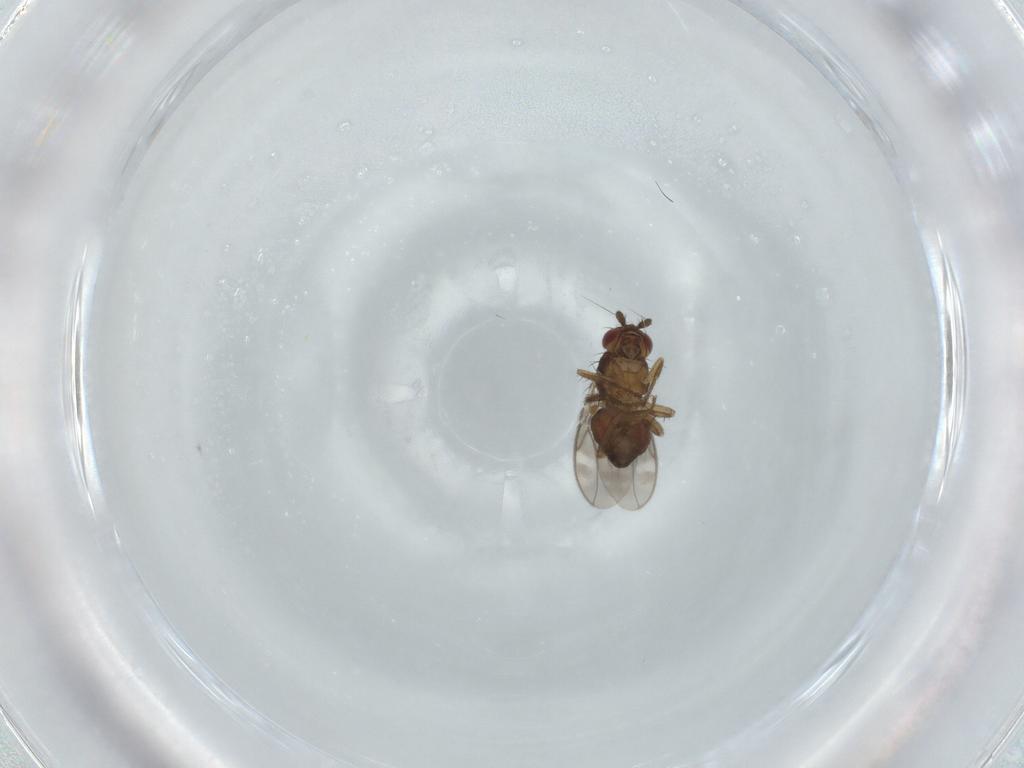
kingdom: Animalia
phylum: Arthropoda
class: Insecta
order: Diptera
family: Sphaeroceridae
